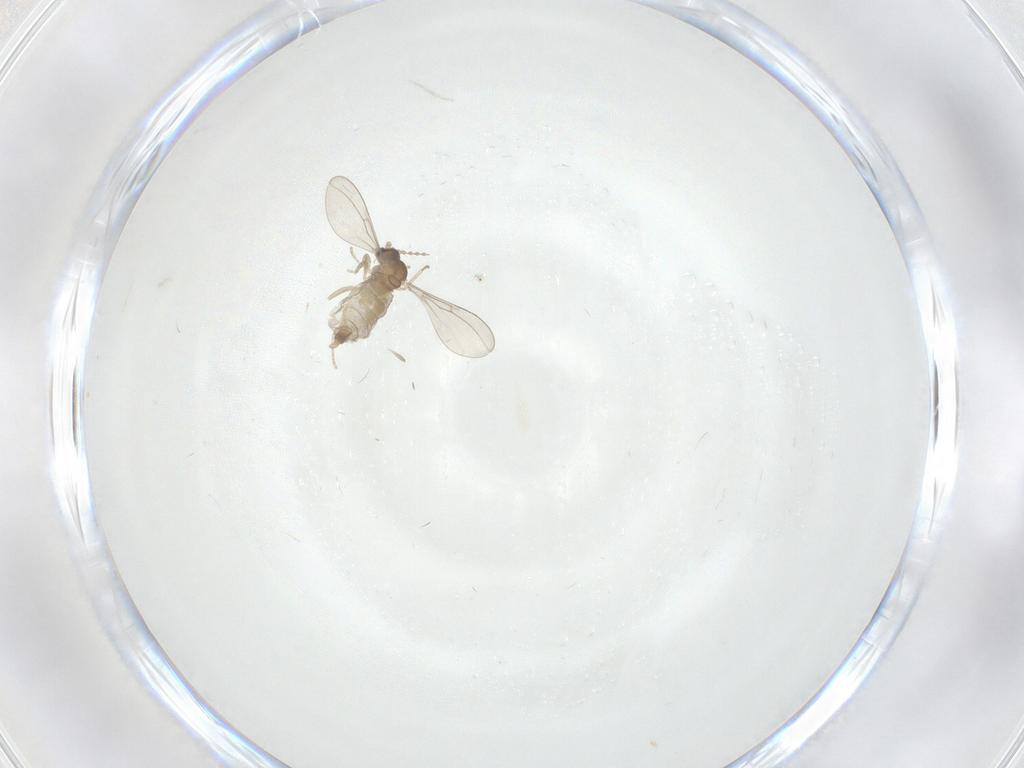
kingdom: Animalia
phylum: Arthropoda
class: Insecta
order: Diptera
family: Cecidomyiidae
